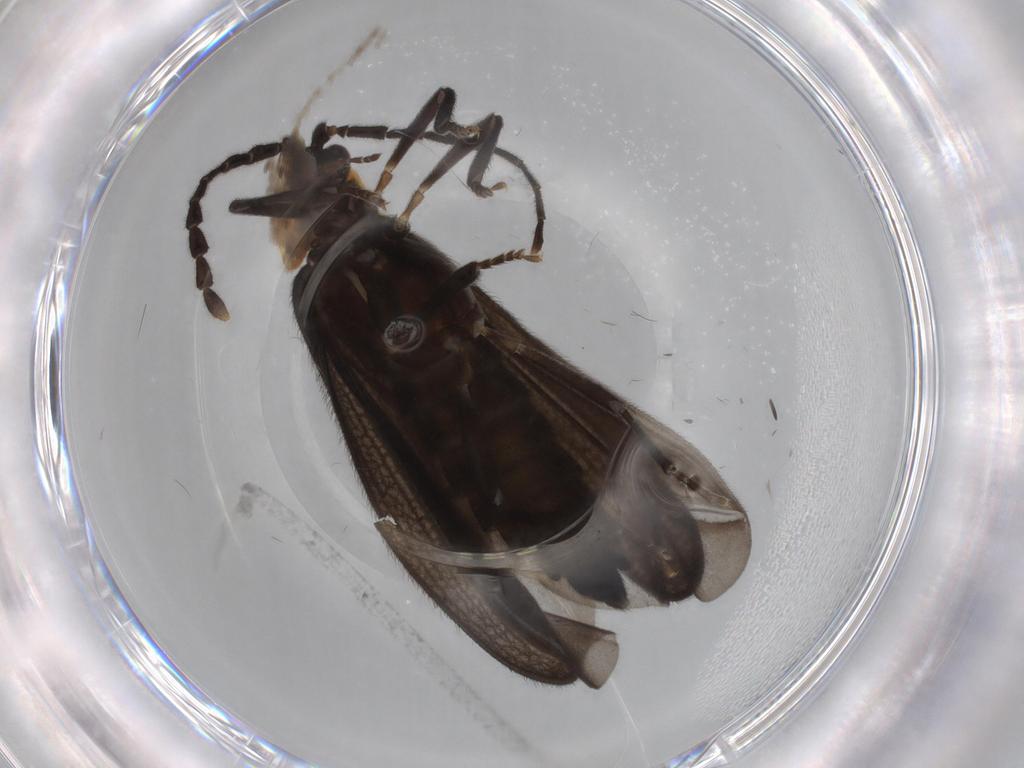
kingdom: Animalia
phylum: Arthropoda
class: Insecta
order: Coleoptera
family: Lycidae
